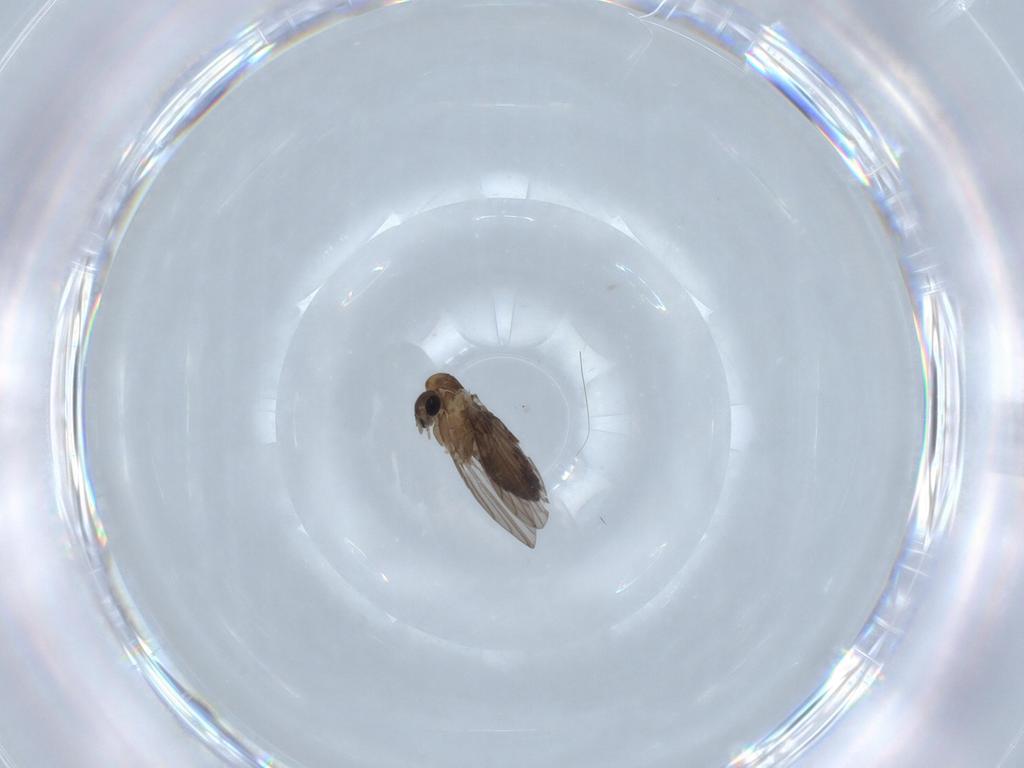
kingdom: Animalia
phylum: Arthropoda
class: Insecta
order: Diptera
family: Psychodidae
